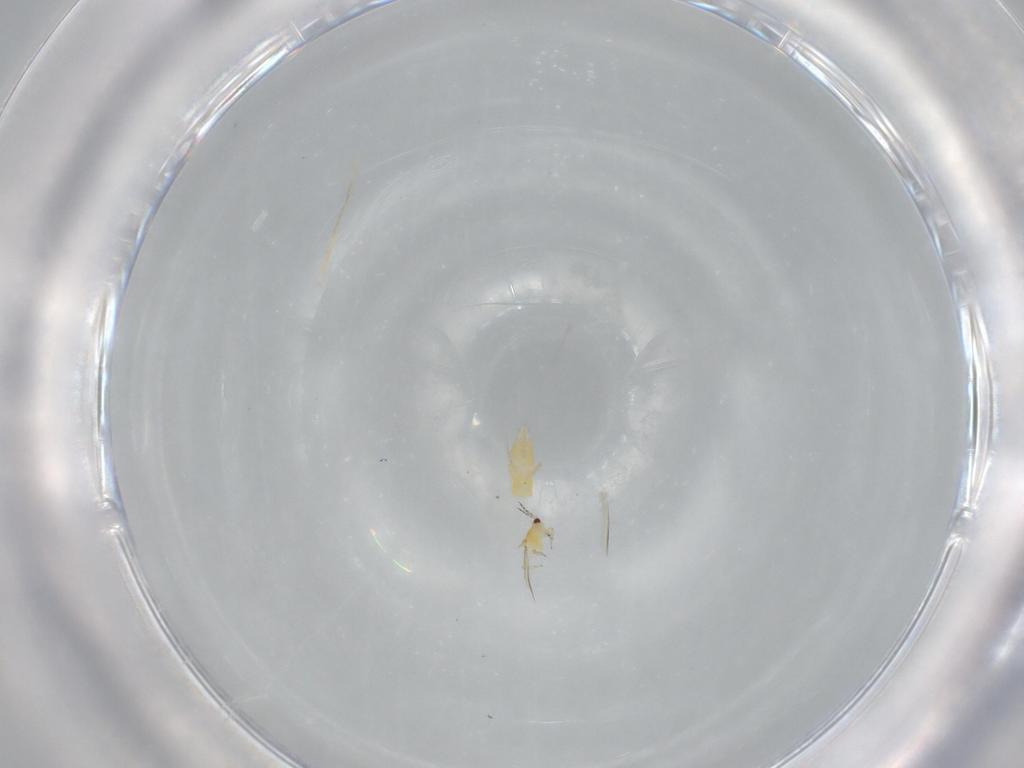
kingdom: Animalia
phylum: Arthropoda
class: Insecta
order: Thysanoptera
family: Thripidae
